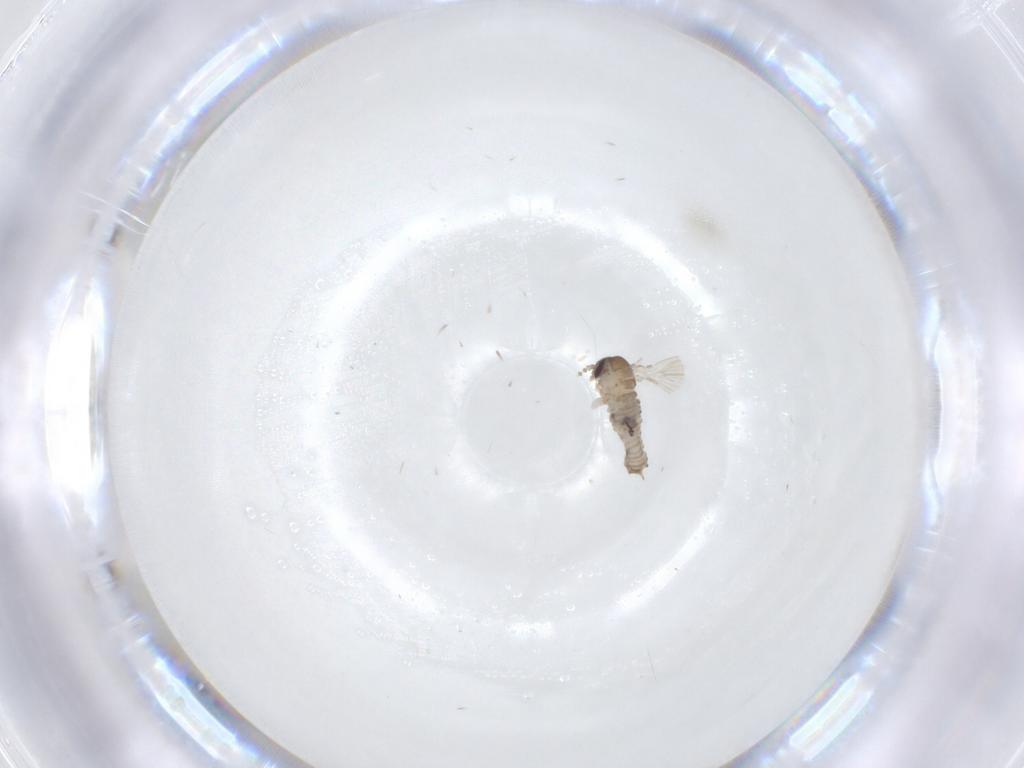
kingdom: Animalia
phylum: Arthropoda
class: Insecta
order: Diptera
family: Psychodidae
